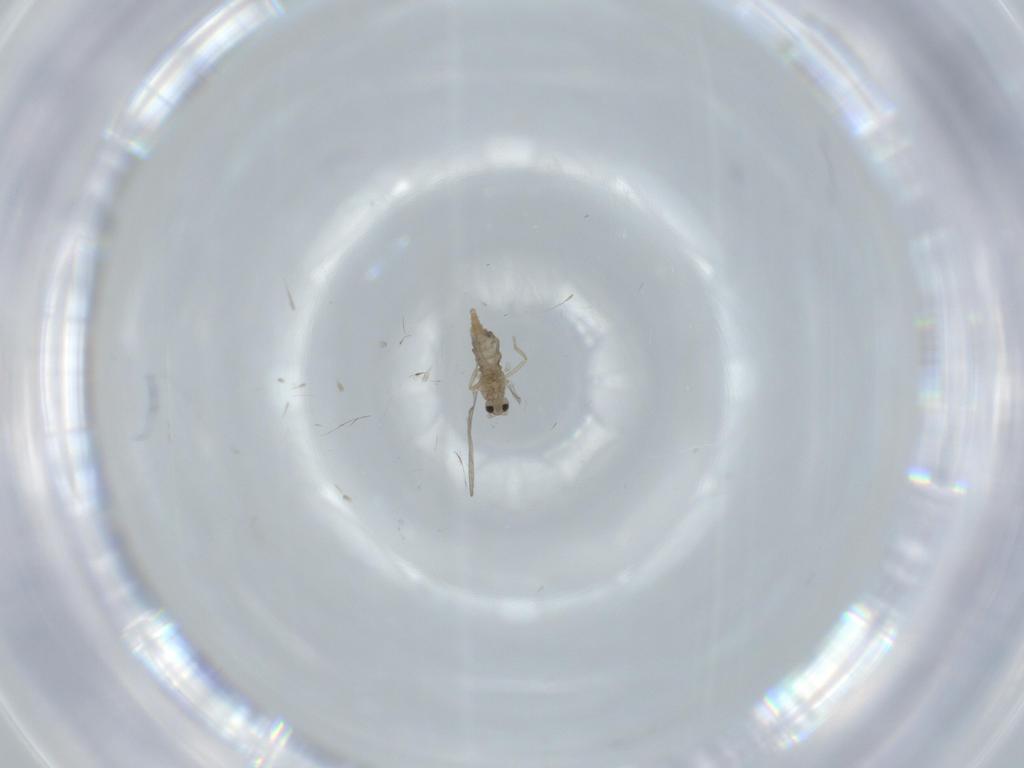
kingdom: Animalia
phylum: Arthropoda
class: Insecta
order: Diptera
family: Cecidomyiidae
